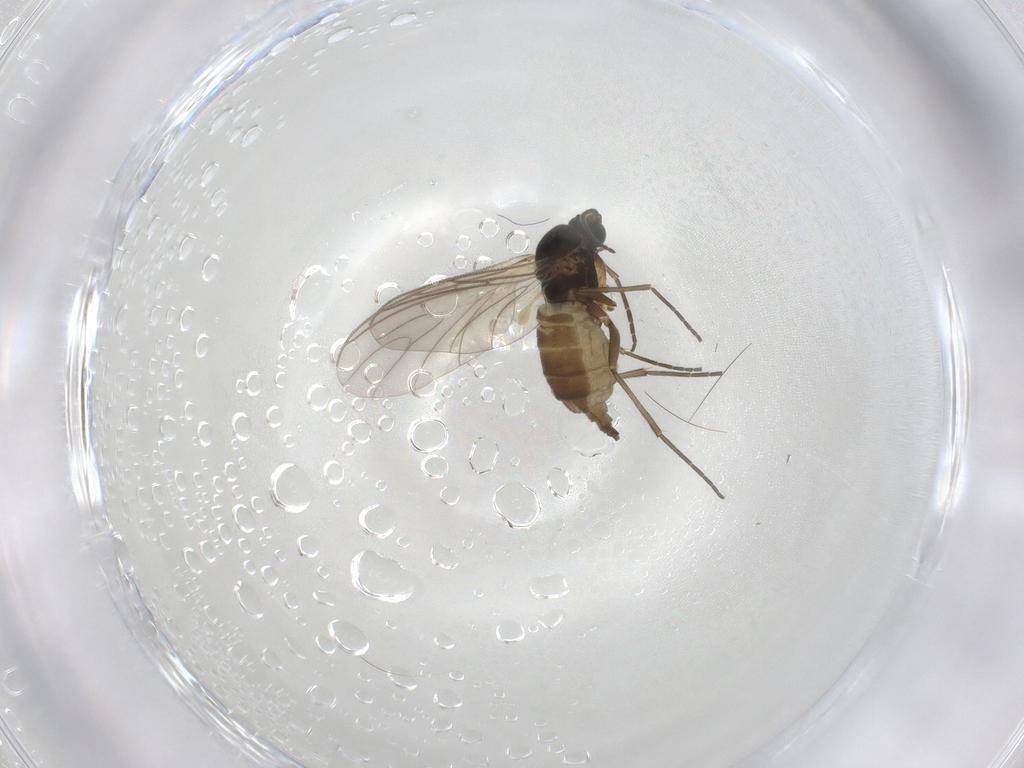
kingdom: Animalia
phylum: Arthropoda
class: Insecta
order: Diptera
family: Sciaridae
